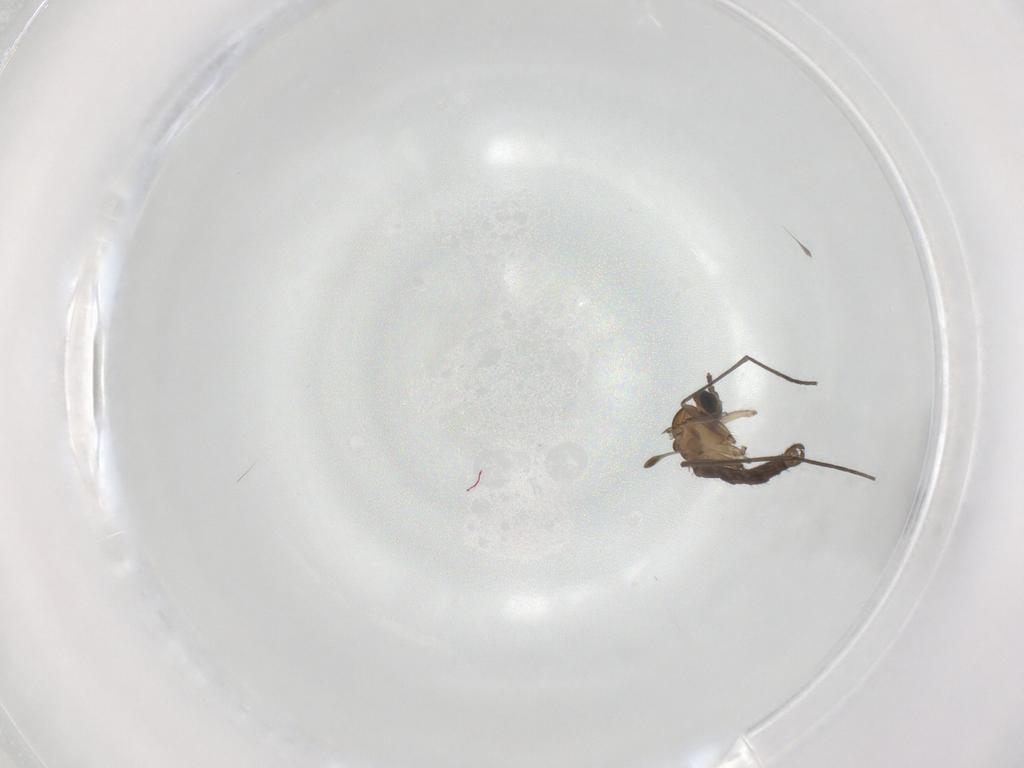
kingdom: Animalia
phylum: Arthropoda
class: Insecta
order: Diptera
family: Sciaridae
